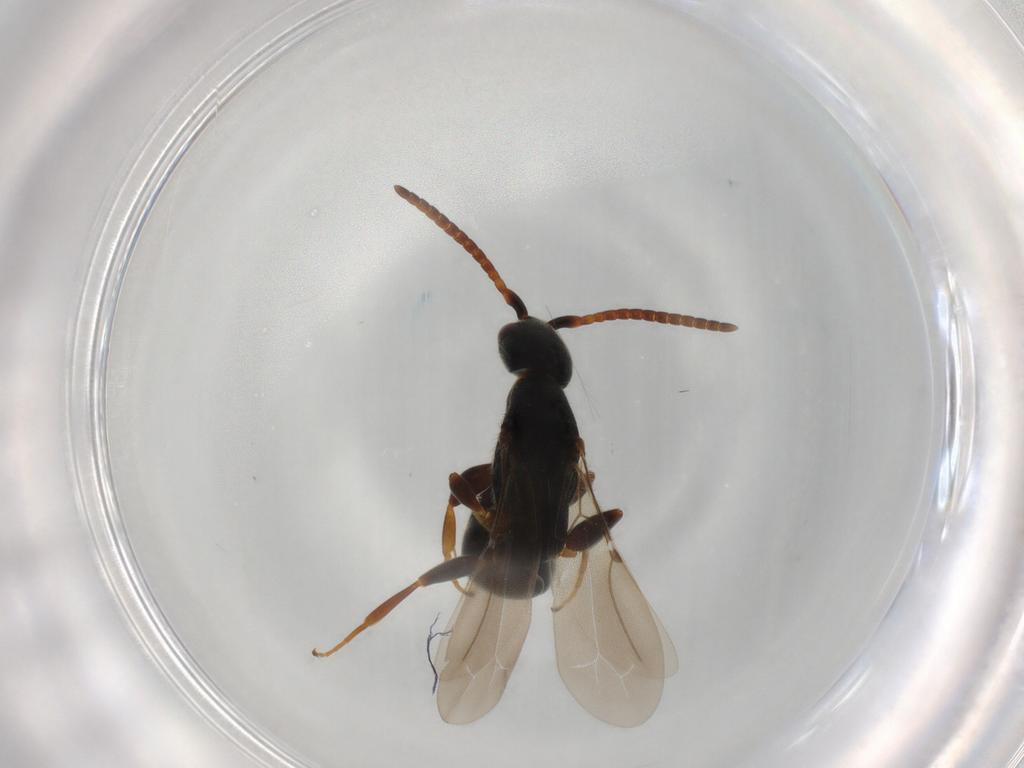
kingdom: Animalia
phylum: Arthropoda
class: Insecta
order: Hymenoptera
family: Bethylidae
